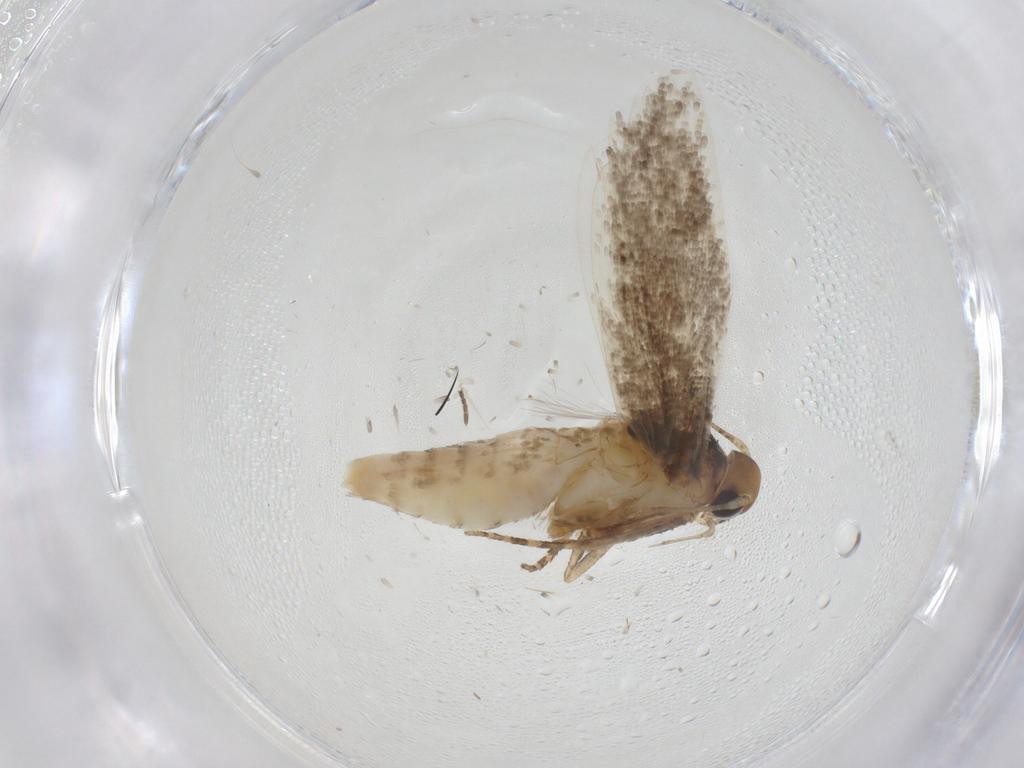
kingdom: Animalia
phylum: Arthropoda
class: Insecta
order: Lepidoptera
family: Gelechiidae
